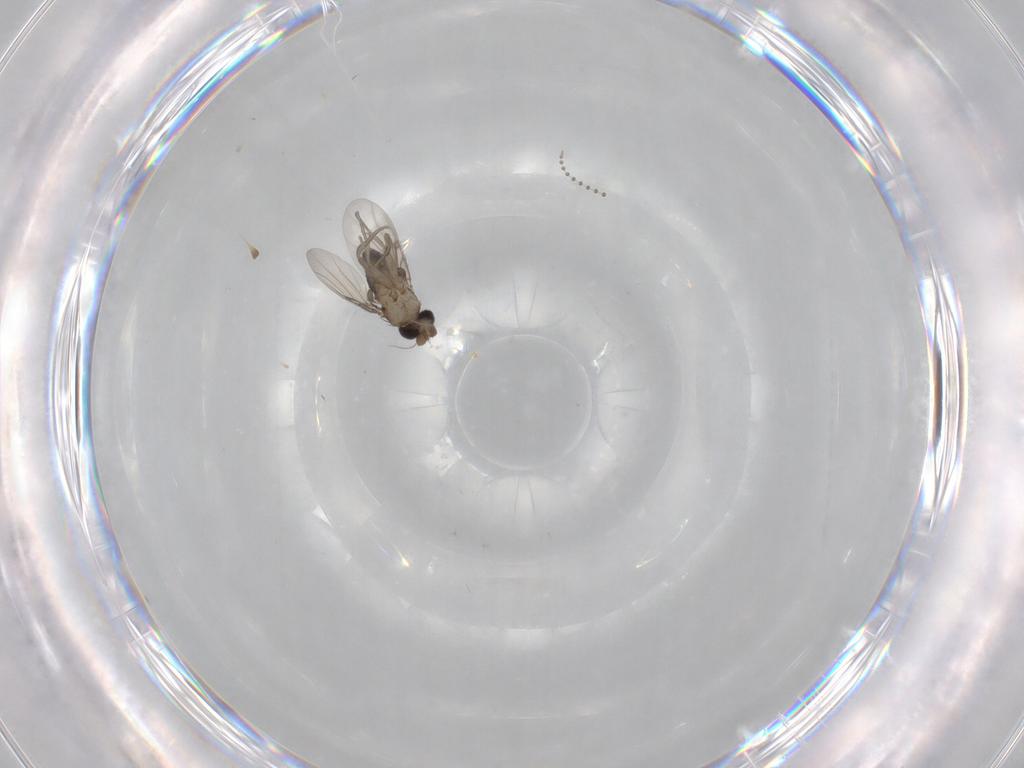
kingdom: Animalia
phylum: Arthropoda
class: Insecta
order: Diptera
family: Phoridae
